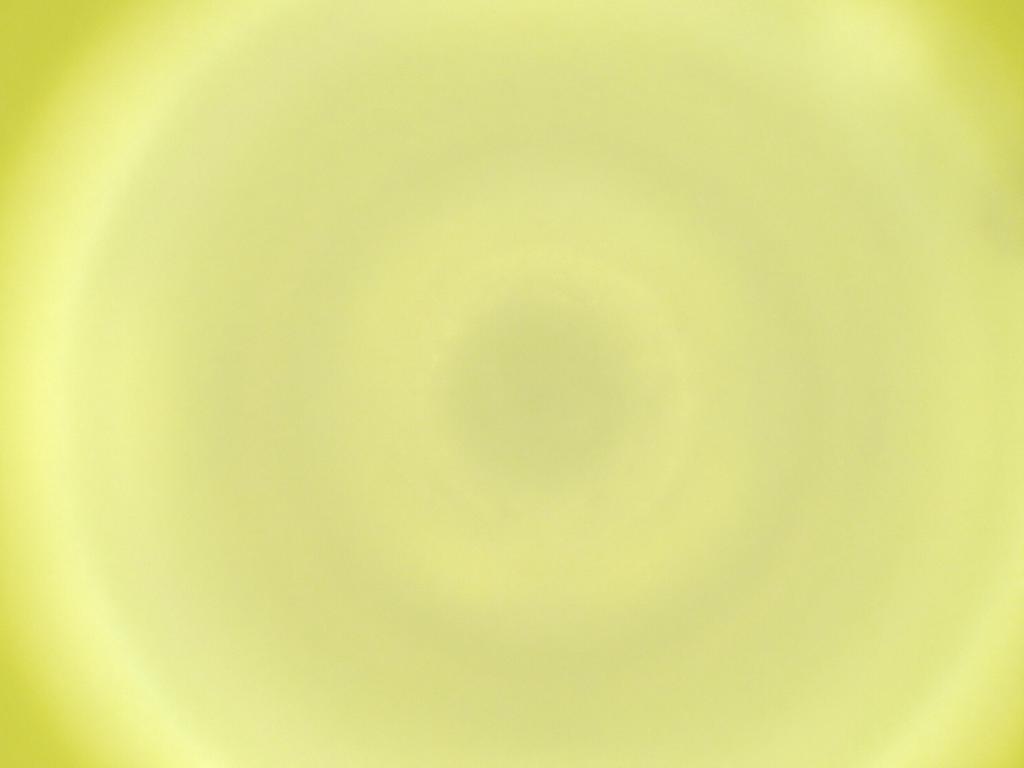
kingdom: Animalia
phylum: Arthropoda
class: Insecta
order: Diptera
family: Cecidomyiidae
